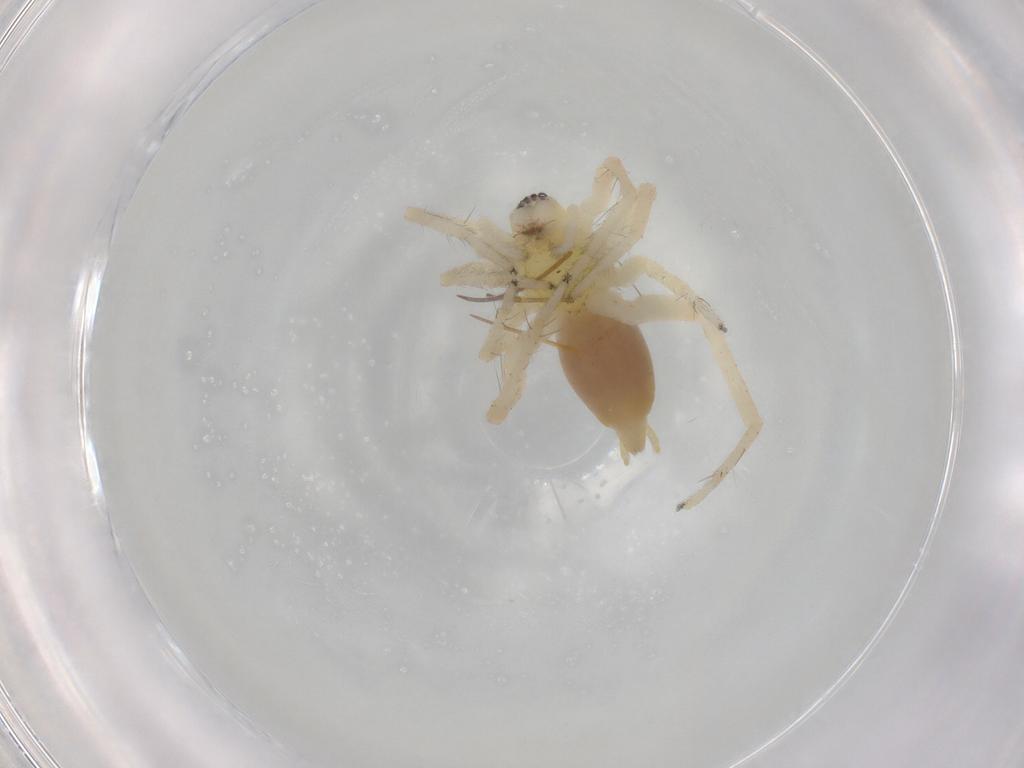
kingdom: Animalia
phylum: Arthropoda
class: Arachnida
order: Araneae
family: Anyphaenidae
